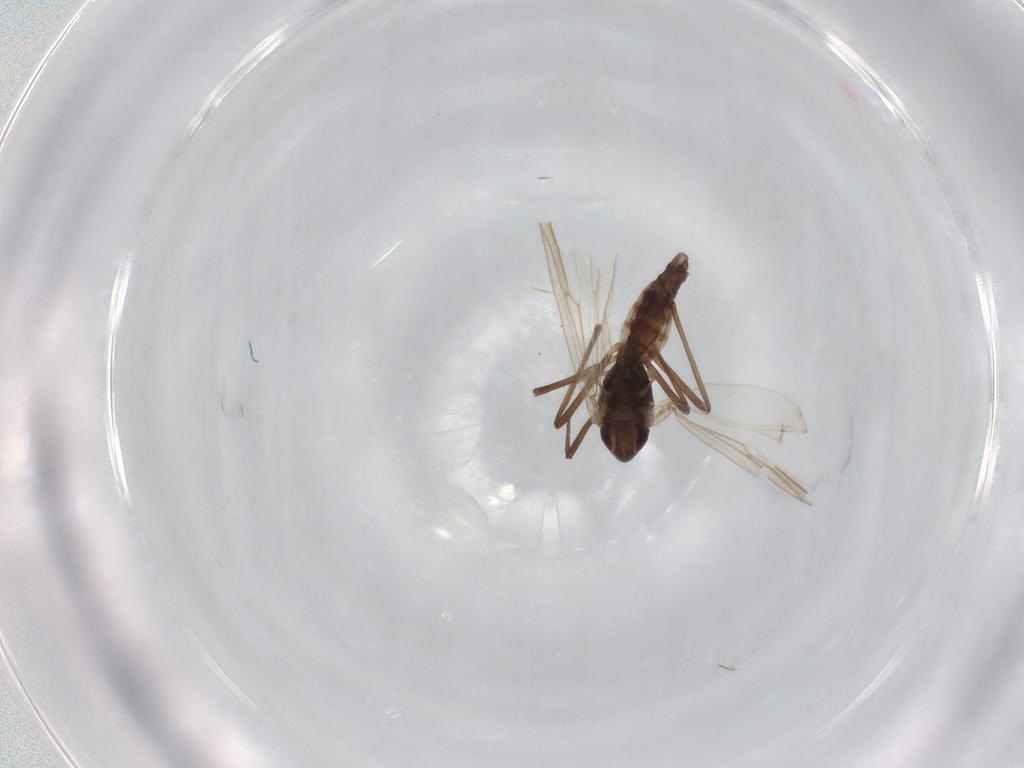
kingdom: Animalia
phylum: Arthropoda
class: Insecta
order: Diptera
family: Chironomidae
